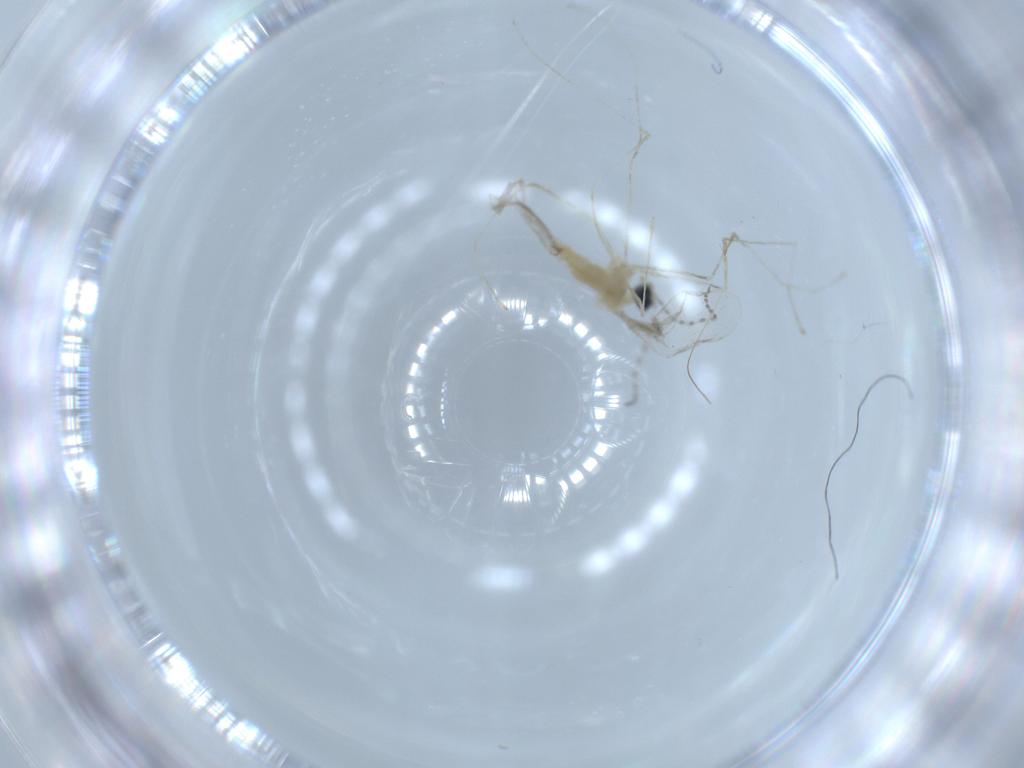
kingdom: Animalia
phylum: Arthropoda
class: Insecta
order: Diptera
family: Cecidomyiidae
